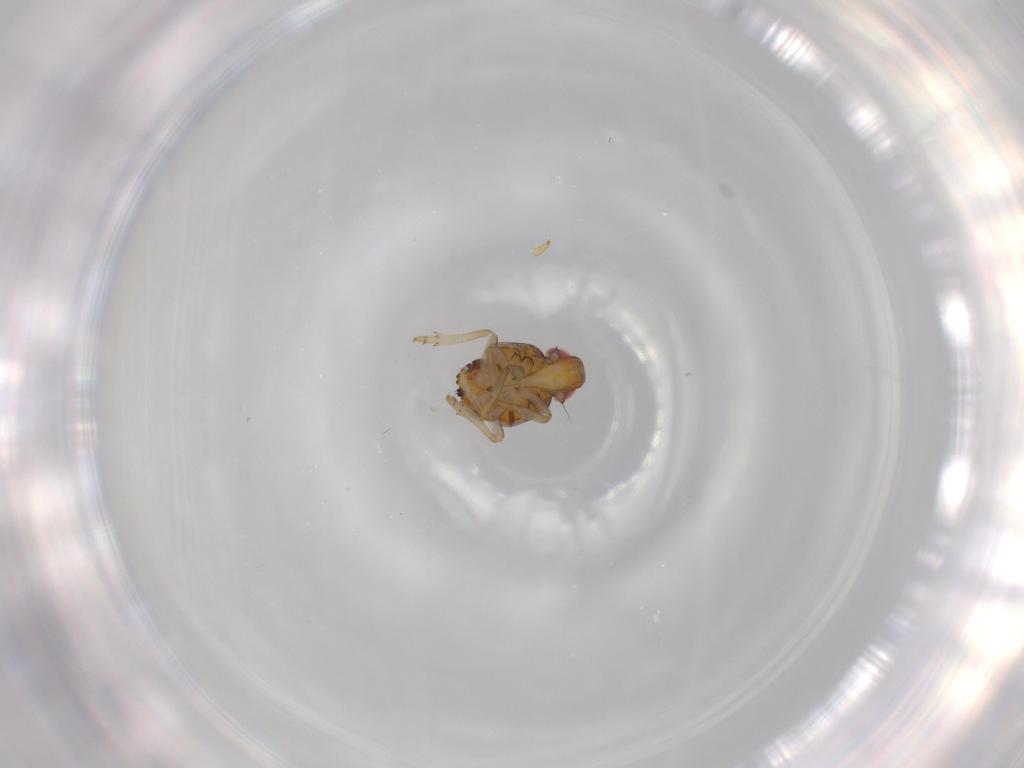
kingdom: Animalia
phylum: Arthropoda
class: Insecta
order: Hemiptera
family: Issidae
